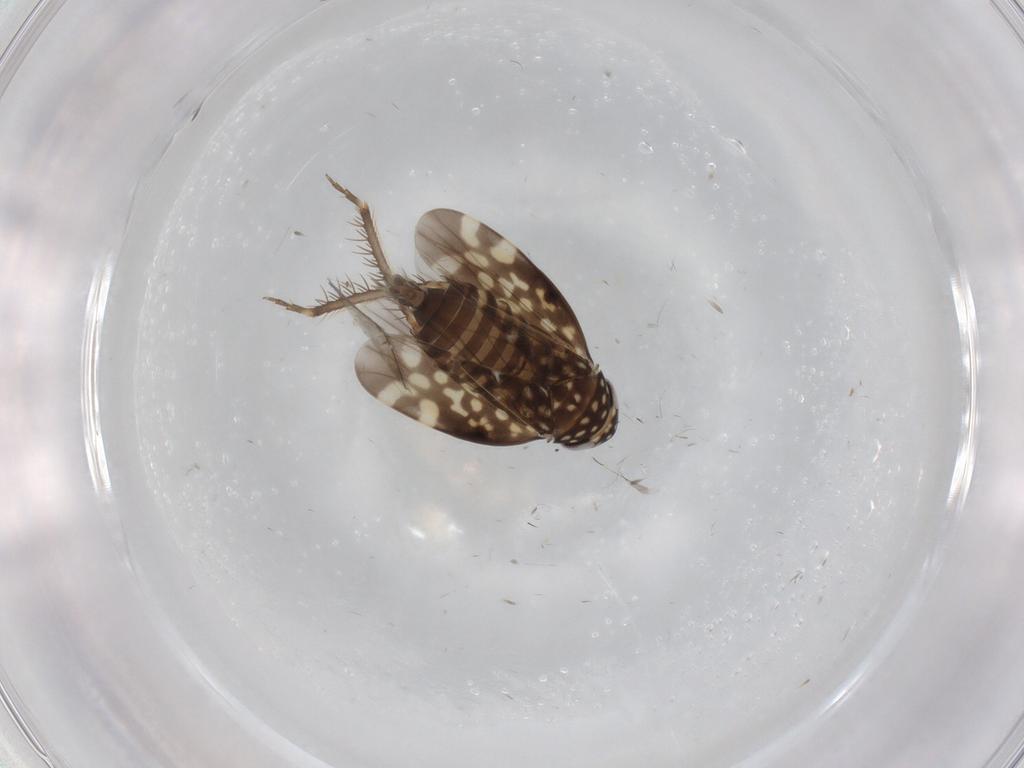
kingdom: Animalia
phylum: Arthropoda
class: Insecta
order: Hemiptera
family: Cicadellidae
